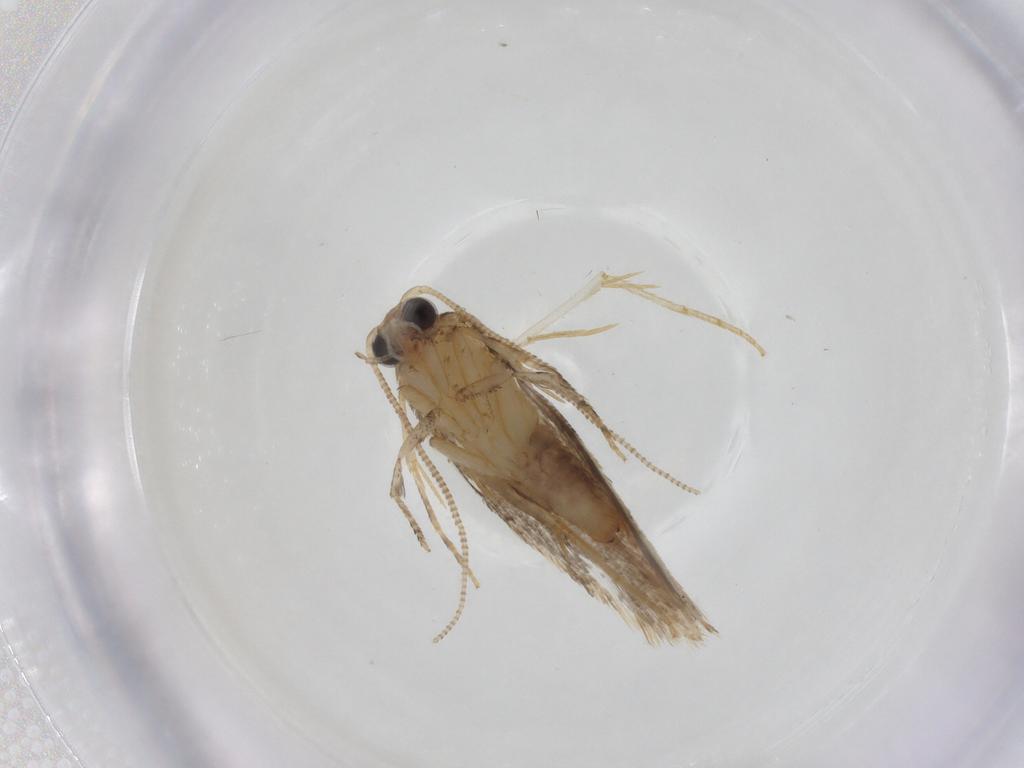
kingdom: Animalia
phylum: Arthropoda
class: Insecta
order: Lepidoptera
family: Meessiidae
